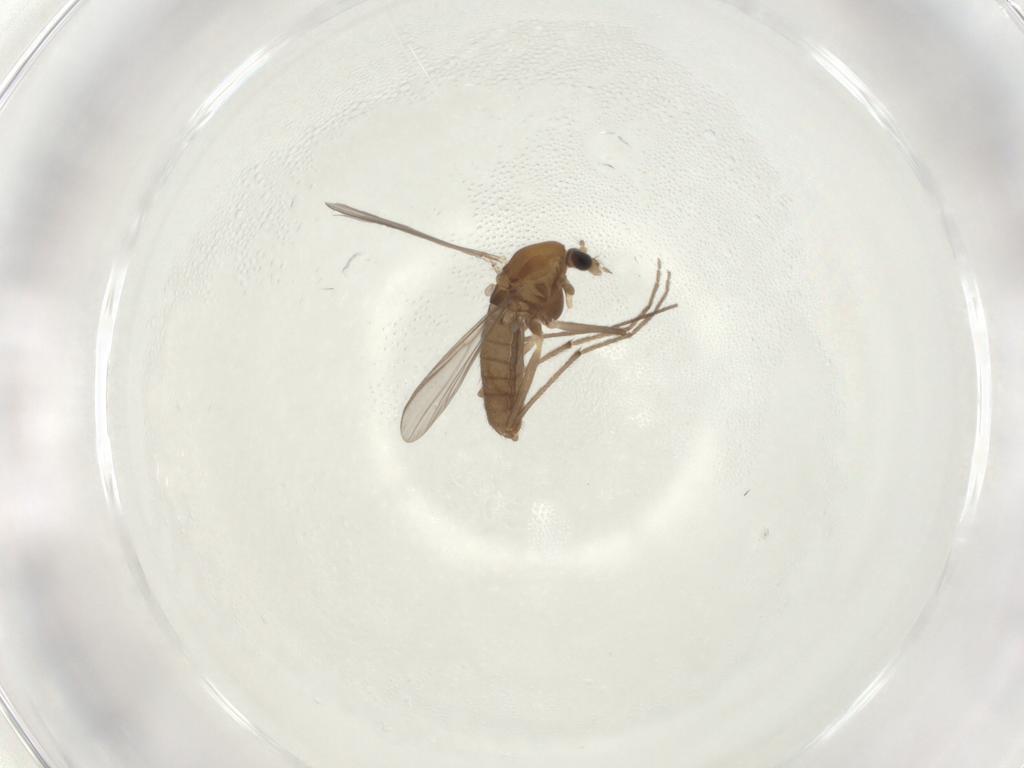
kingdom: Animalia
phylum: Arthropoda
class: Insecta
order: Diptera
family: Chironomidae
